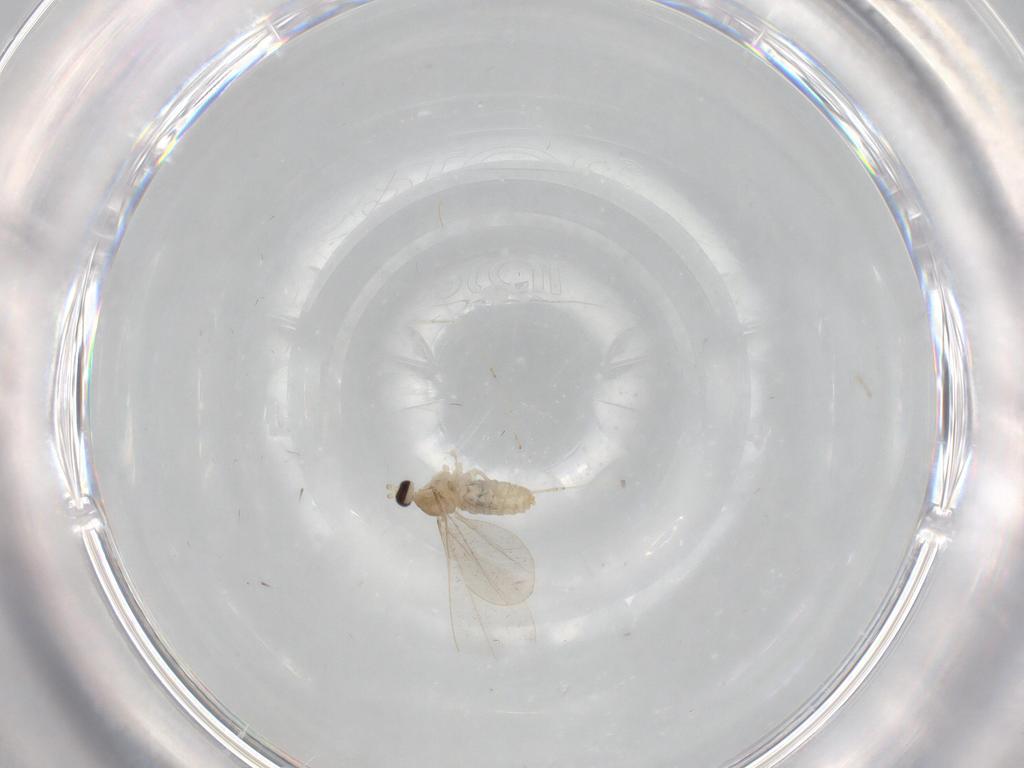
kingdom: Animalia
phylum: Arthropoda
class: Insecta
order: Diptera
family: Cecidomyiidae
